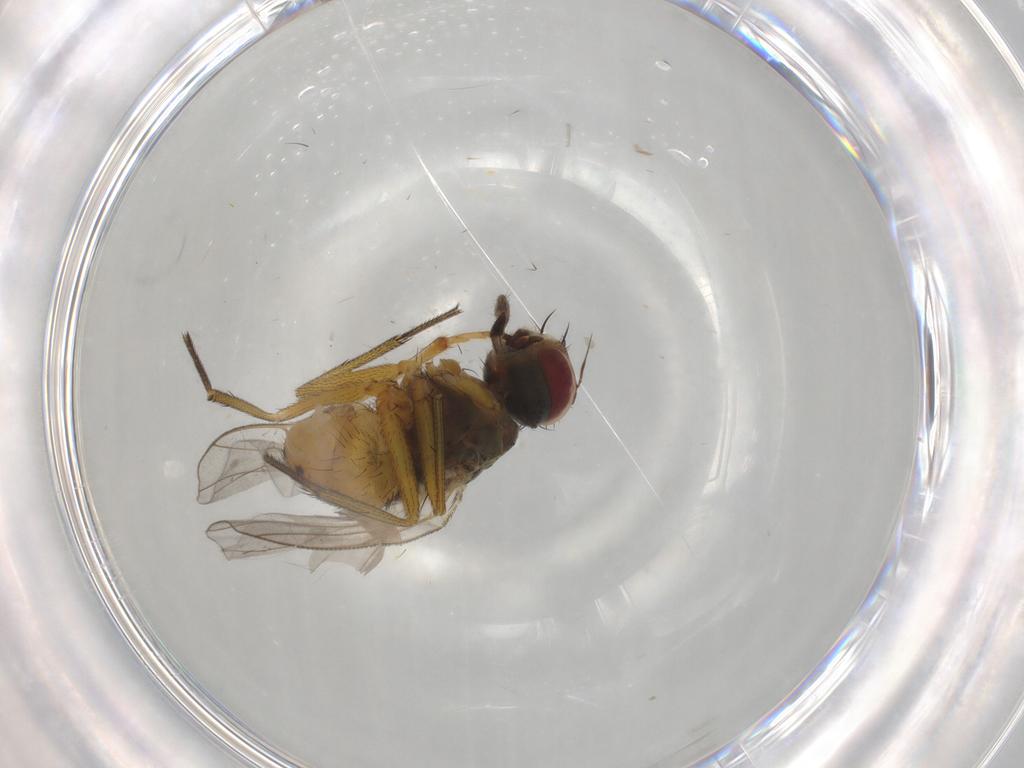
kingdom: Animalia
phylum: Arthropoda
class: Insecta
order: Diptera
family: Muscidae
